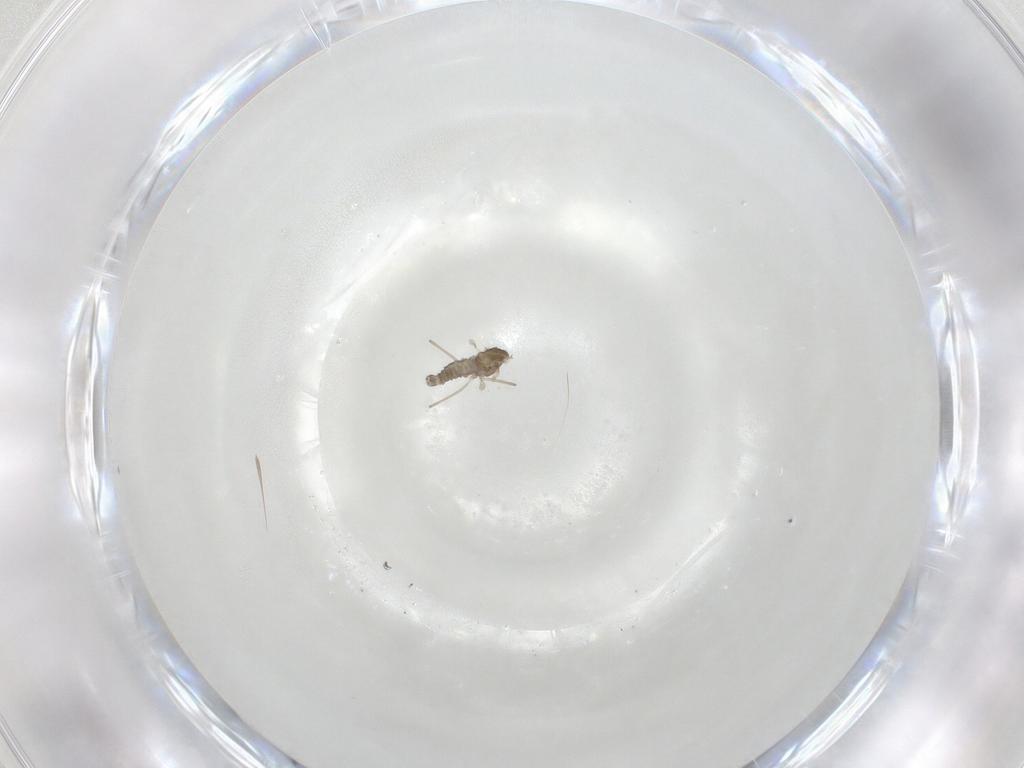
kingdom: Animalia
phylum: Arthropoda
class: Insecta
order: Diptera
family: Cecidomyiidae
